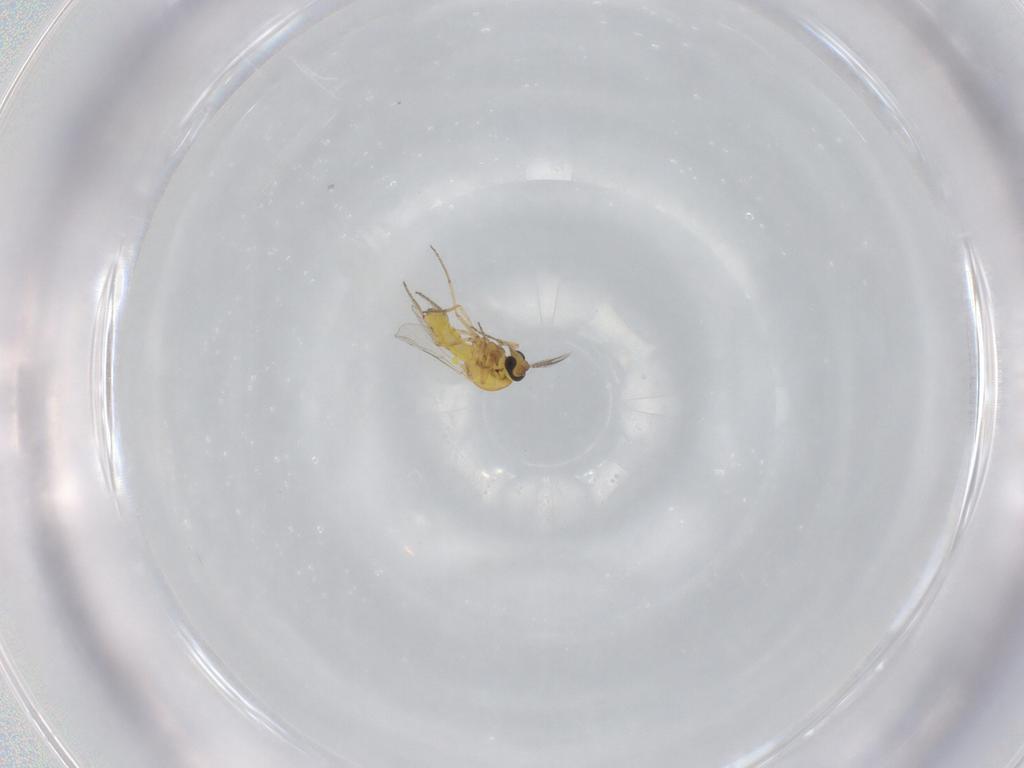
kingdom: Animalia
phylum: Arthropoda
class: Insecta
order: Diptera
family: Ceratopogonidae
